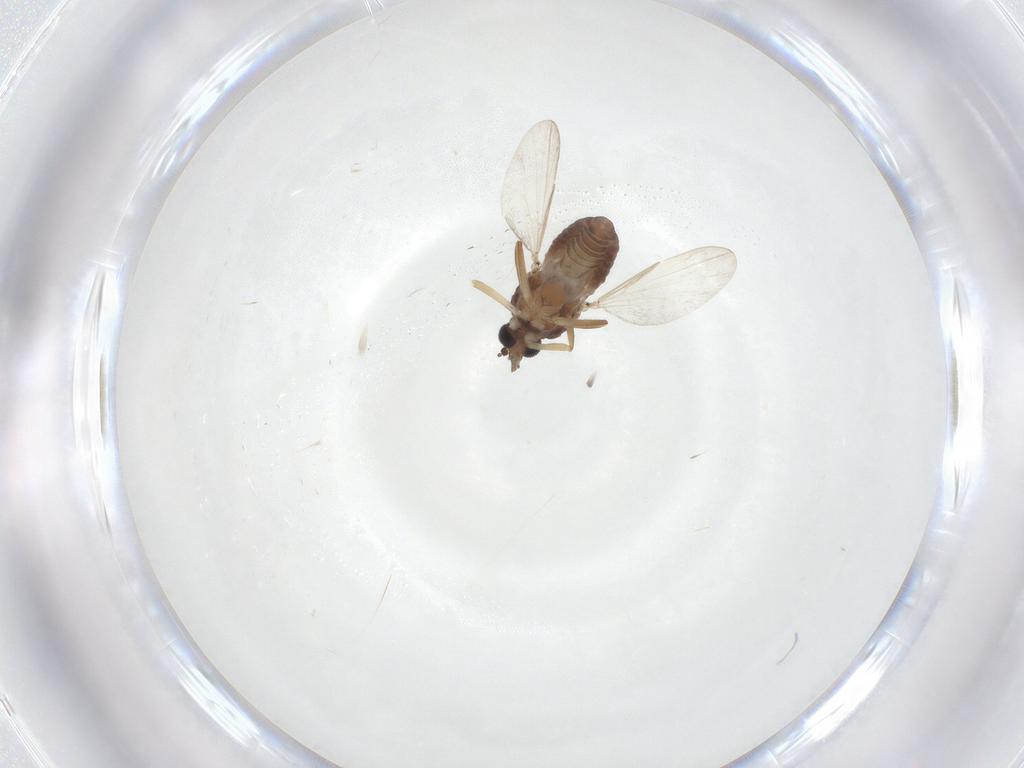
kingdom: Animalia
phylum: Arthropoda
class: Insecta
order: Diptera
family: Ceratopogonidae
